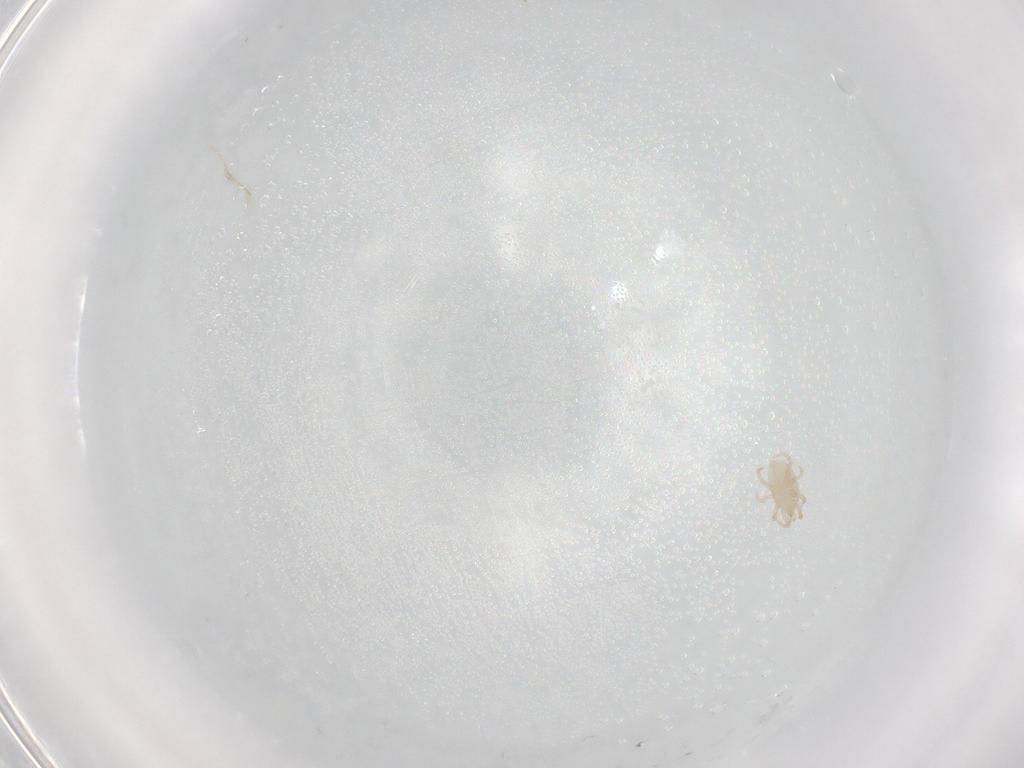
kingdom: Animalia
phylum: Arthropoda
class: Arachnida
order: Mesostigmata
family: Melicharidae
